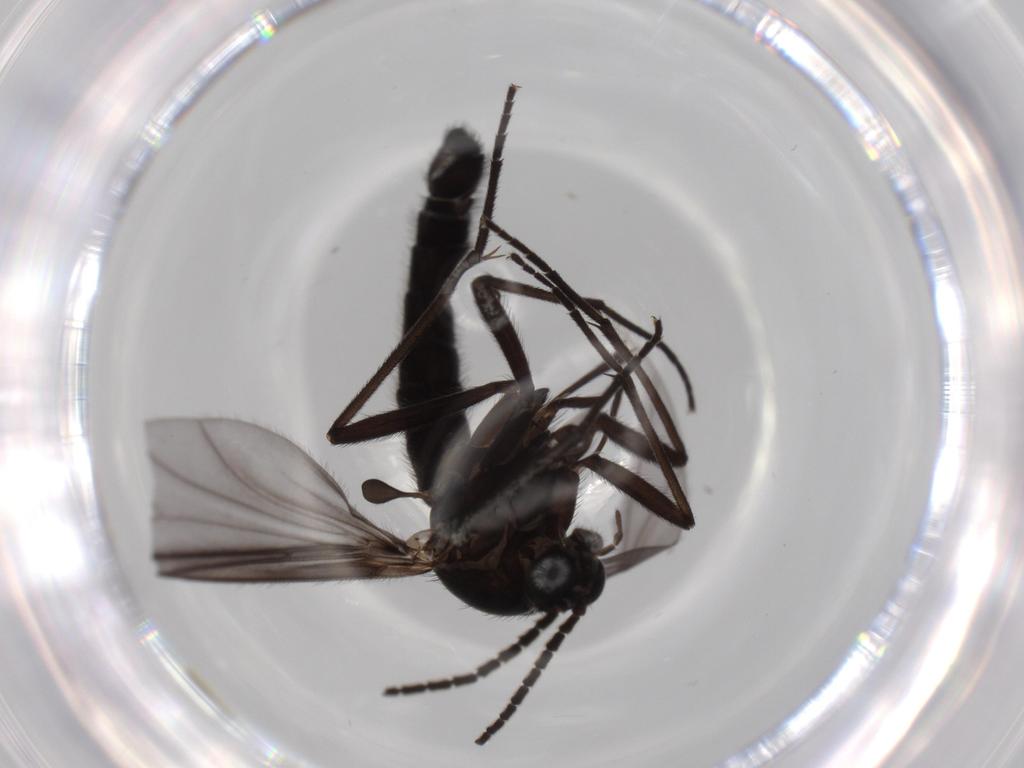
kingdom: Animalia
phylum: Arthropoda
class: Insecta
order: Diptera
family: Sciaridae
